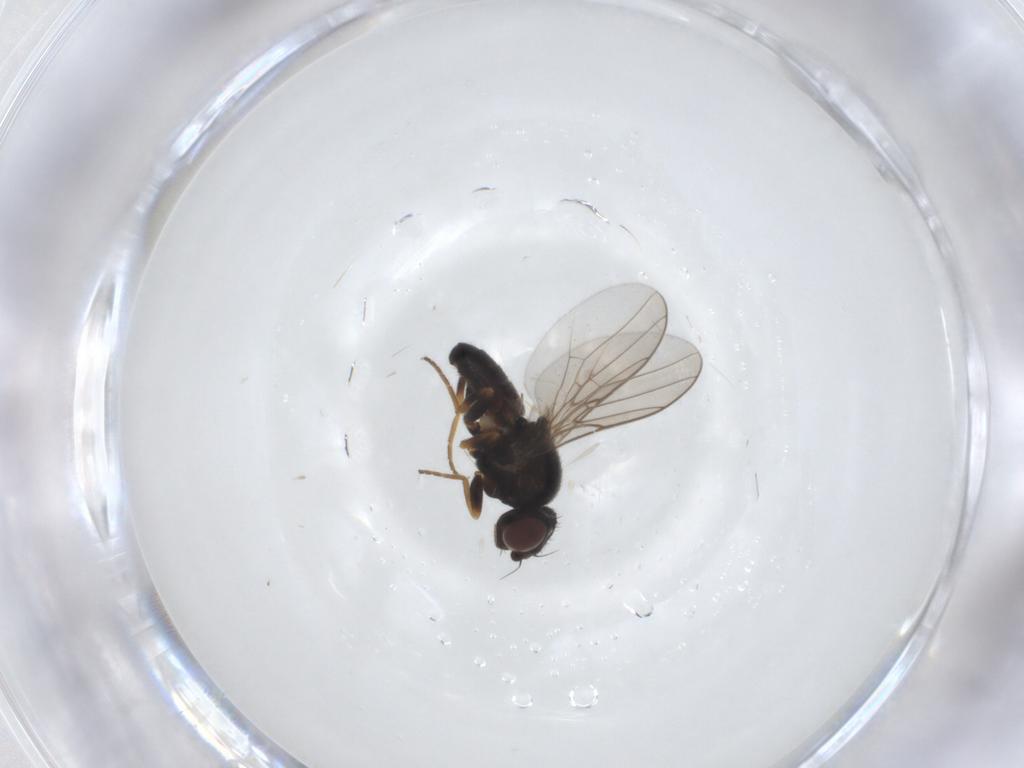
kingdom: Animalia
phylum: Arthropoda
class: Insecta
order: Diptera
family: Chloropidae
